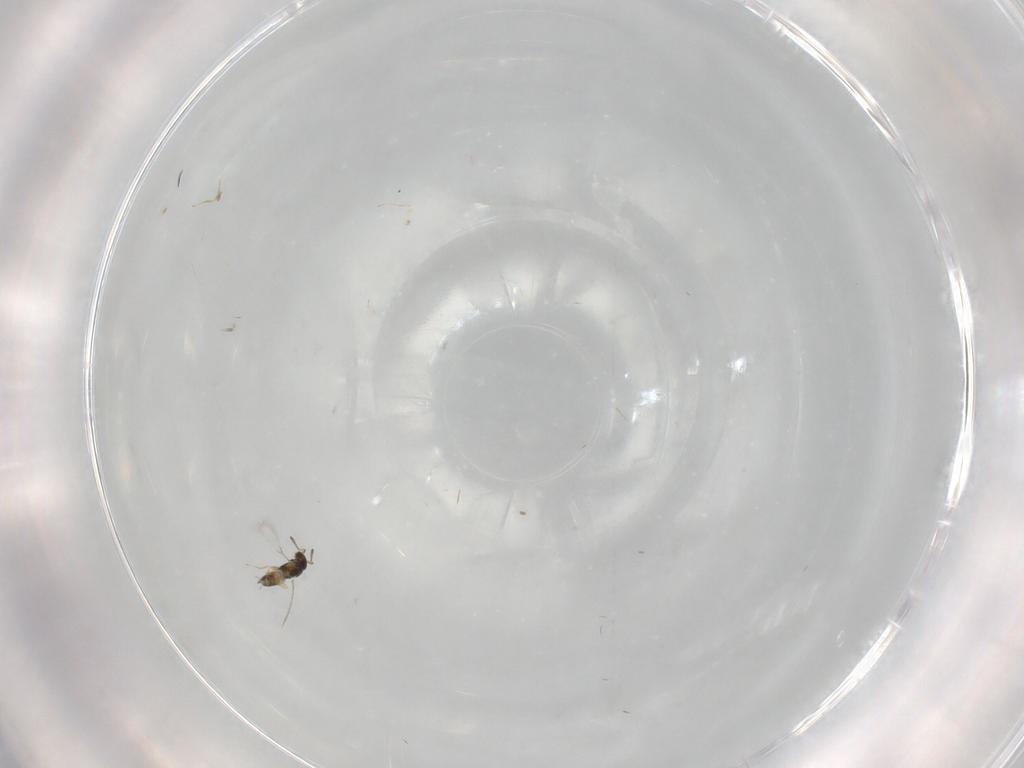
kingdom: Animalia
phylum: Arthropoda
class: Insecta
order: Hymenoptera
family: Mymaridae
